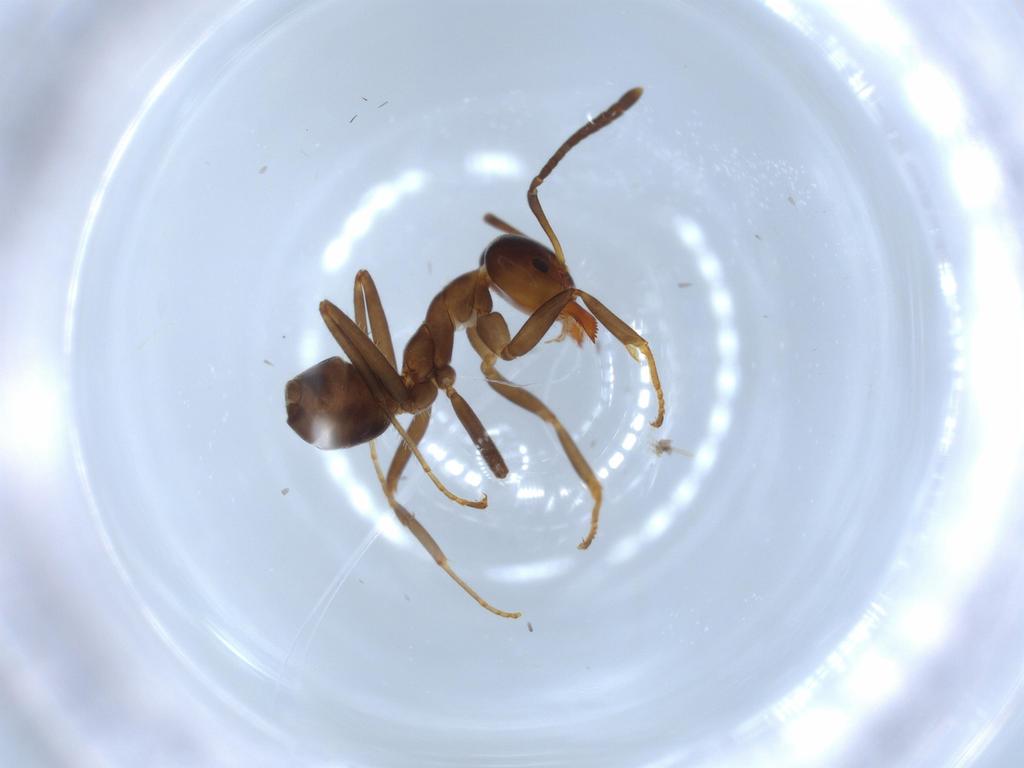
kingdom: Animalia
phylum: Arthropoda
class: Insecta
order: Hymenoptera
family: Formicidae
